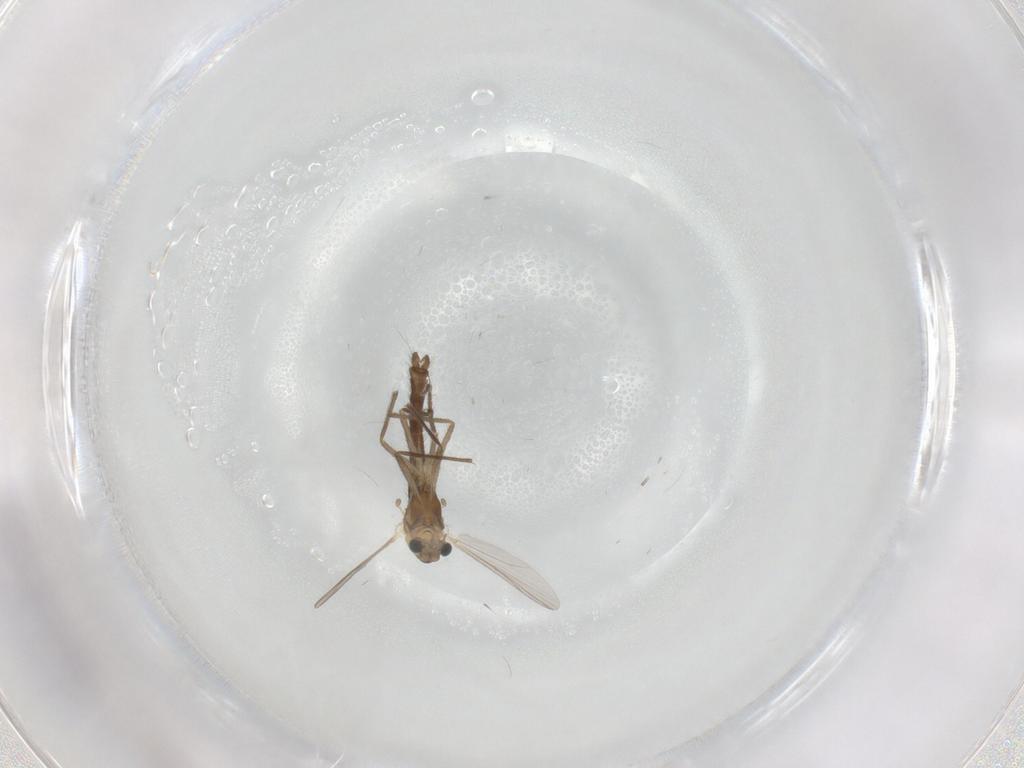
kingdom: Animalia
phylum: Arthropoda
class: Insecta
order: Diptera
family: Chironomidae
